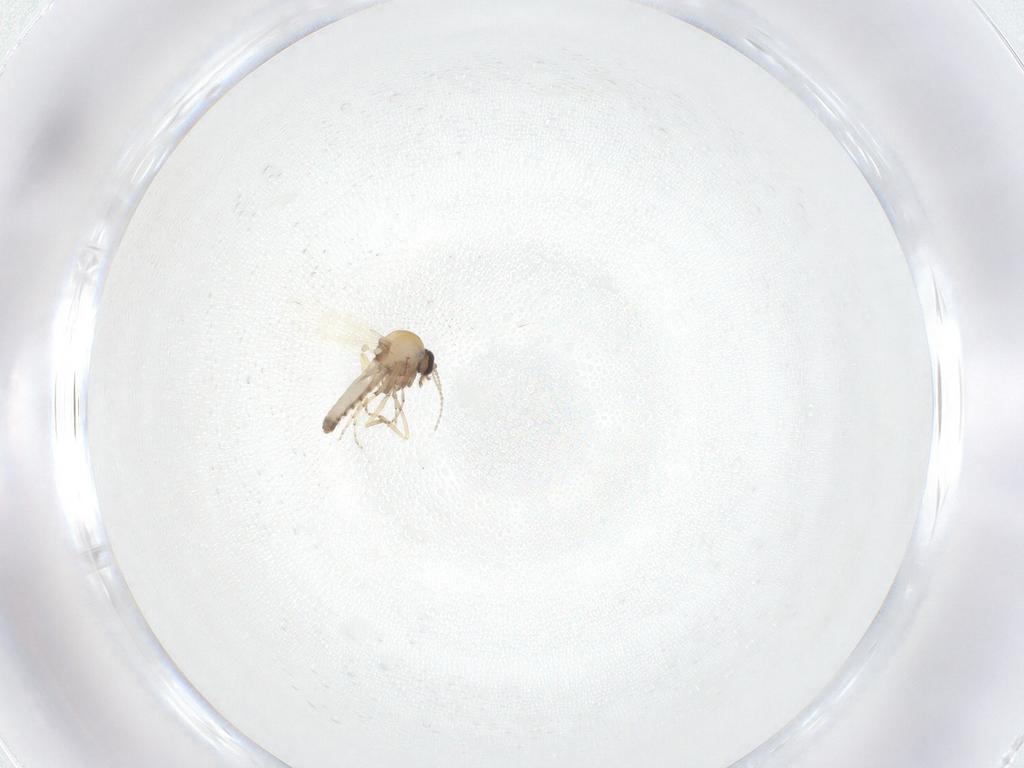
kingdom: Animalia
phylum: Arthropoda
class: Insecta
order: Diptera
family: Ceratopogonidae
